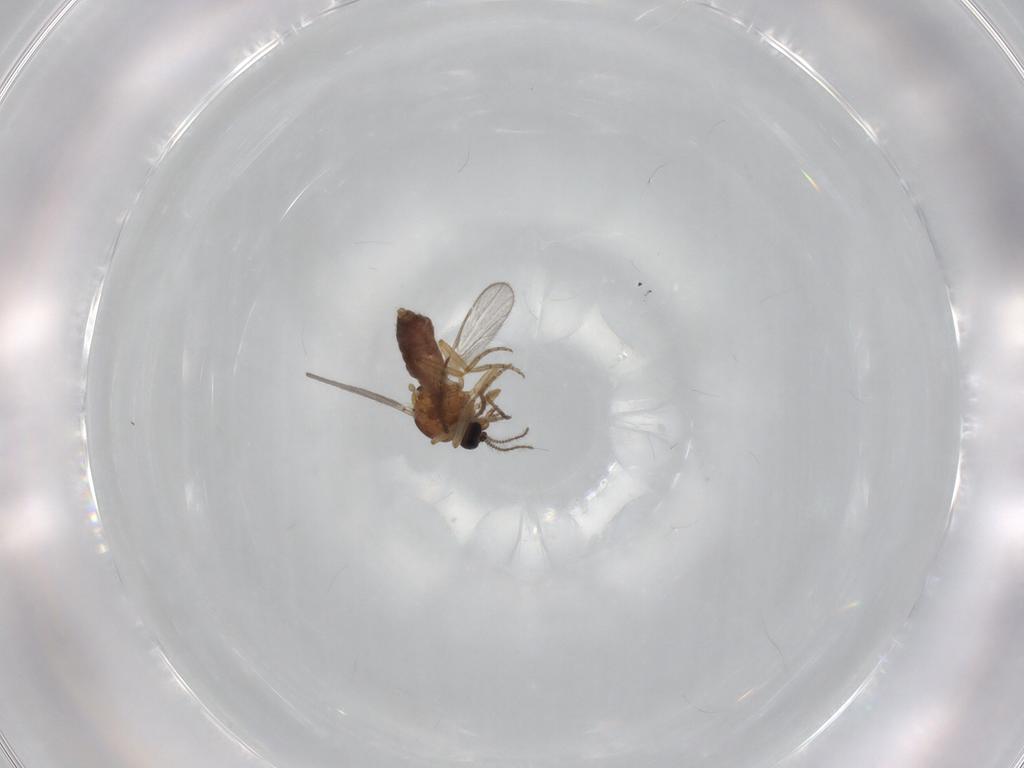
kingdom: Animalia
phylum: Arthropoda
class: Insecta
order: Diptera
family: Ceratopogonidae
